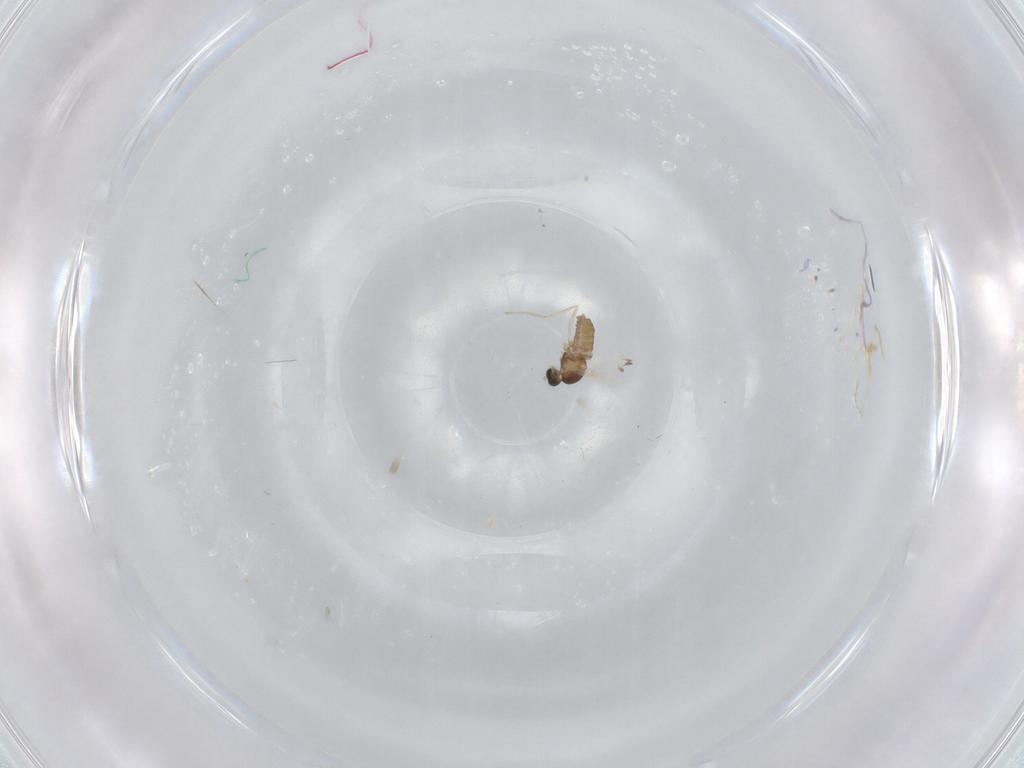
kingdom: Animalia
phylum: Arthropoda
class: Insecta
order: Diptera
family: Cecidomyiidae
